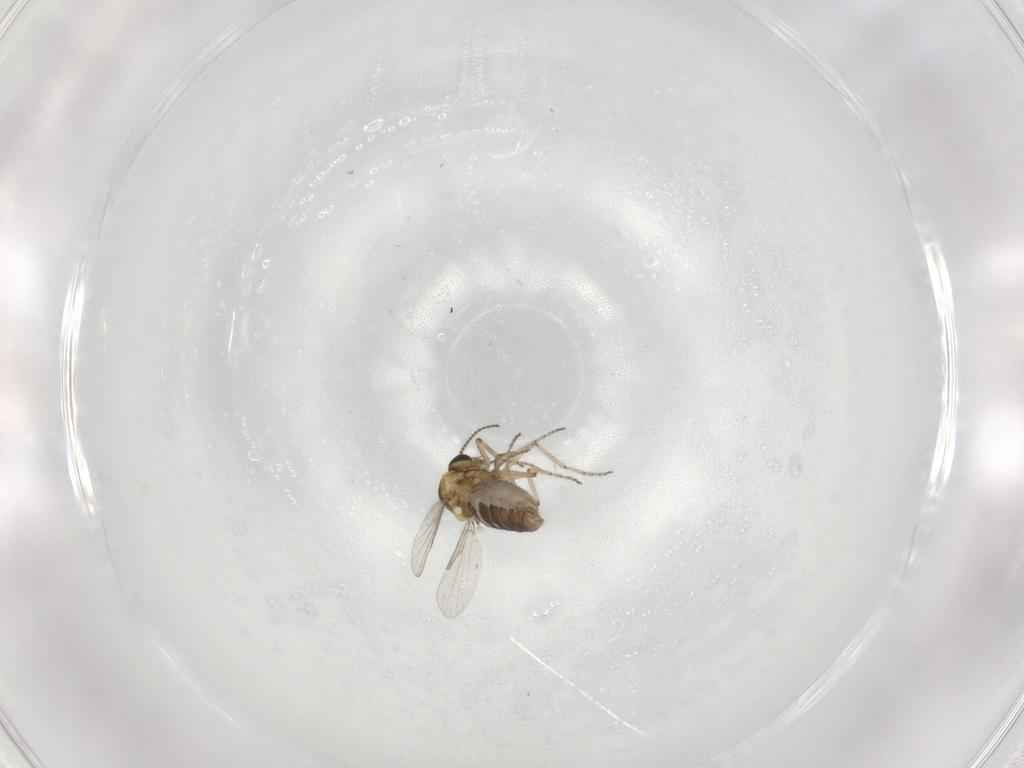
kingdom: Animalia
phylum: Arthropoda
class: Insecta
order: Diptera
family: Ceratopogonidae
